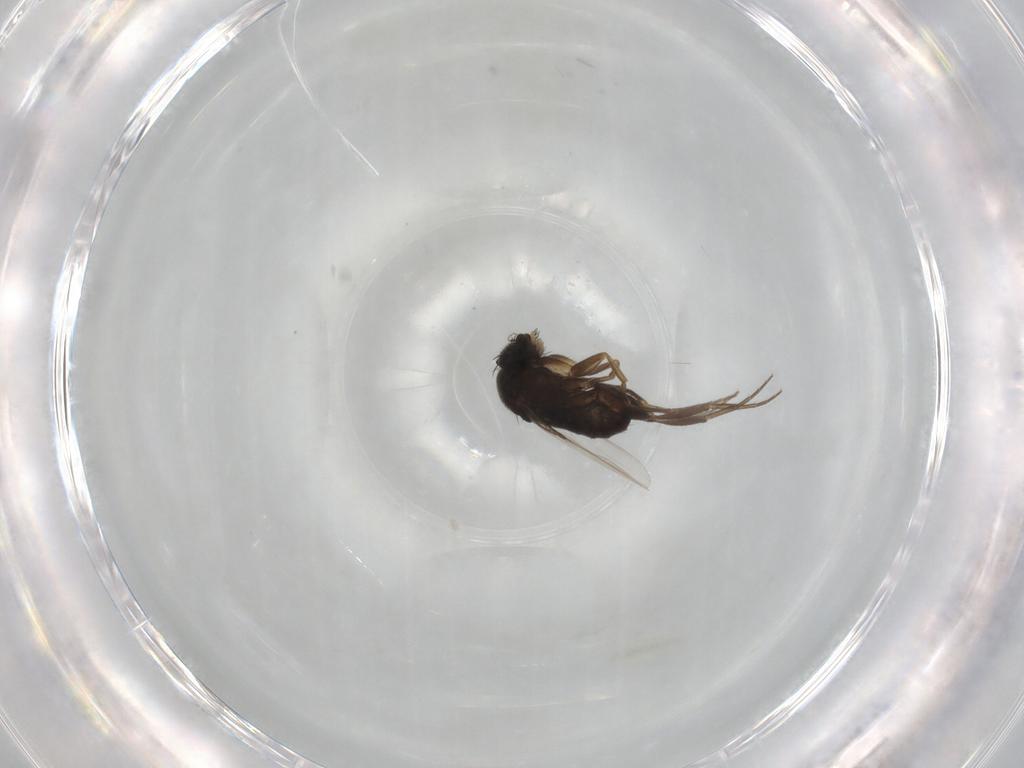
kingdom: Animalia
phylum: Arthropoda
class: Insecta
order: Diptera
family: Phoridae
